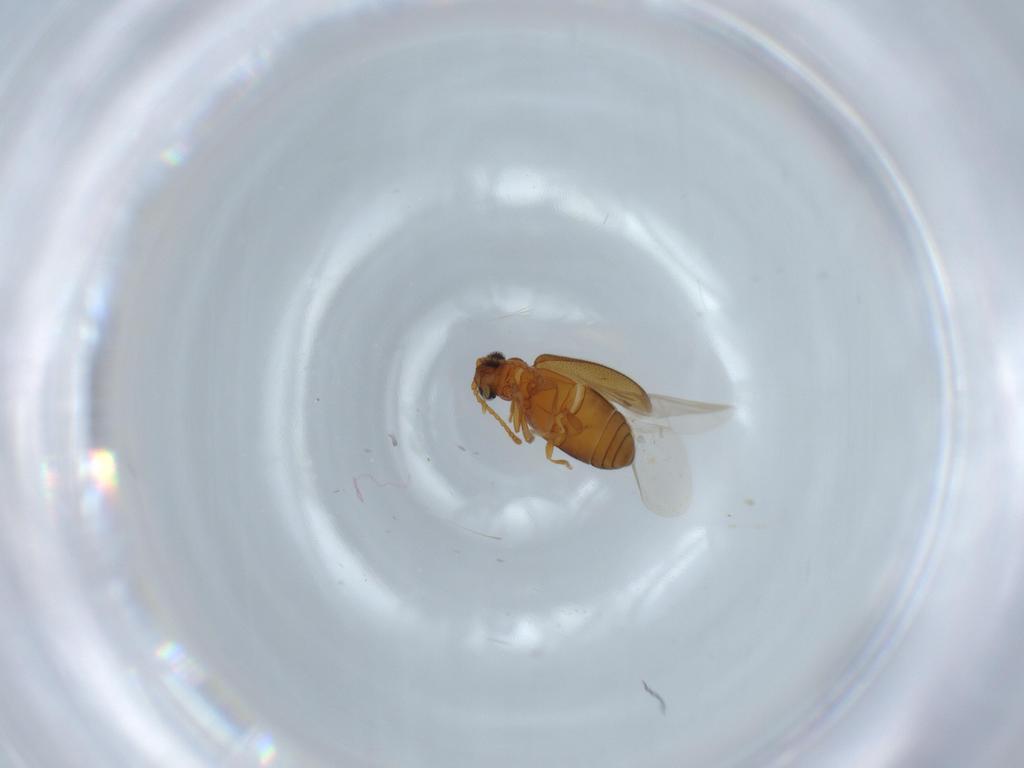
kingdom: Animalia
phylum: Arthropoda
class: Insecta
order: Coleoptera
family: Aderidae
